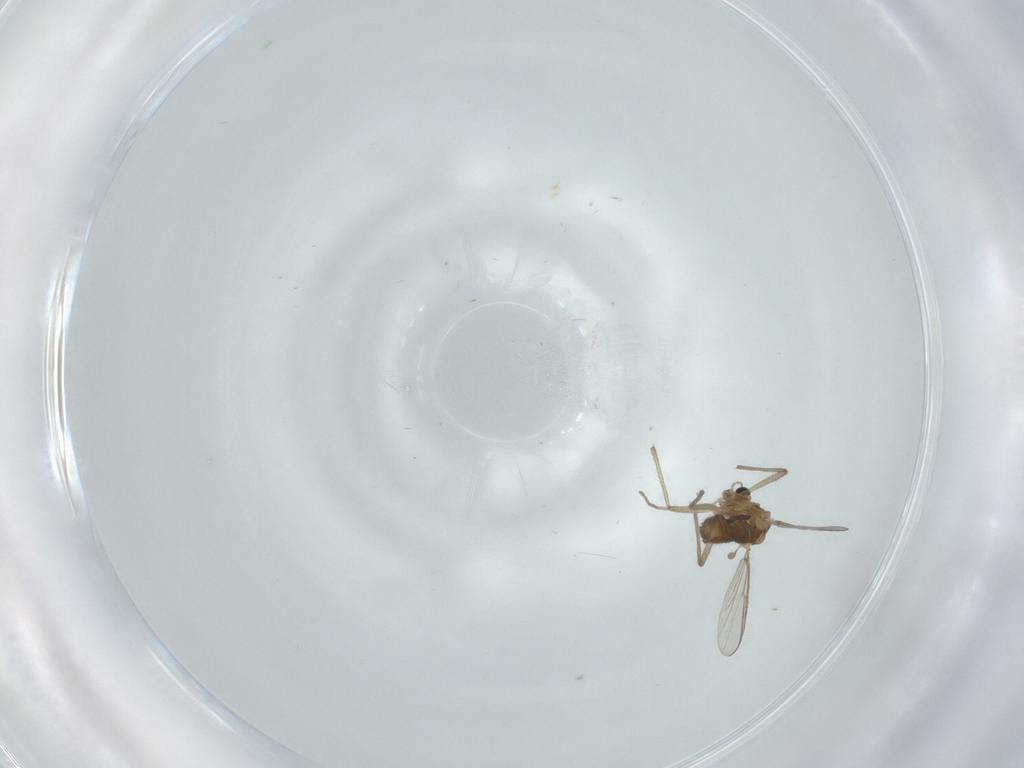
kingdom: Animalia
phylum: Arthropoda
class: Insecta
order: Diptera
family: Chironomidae
